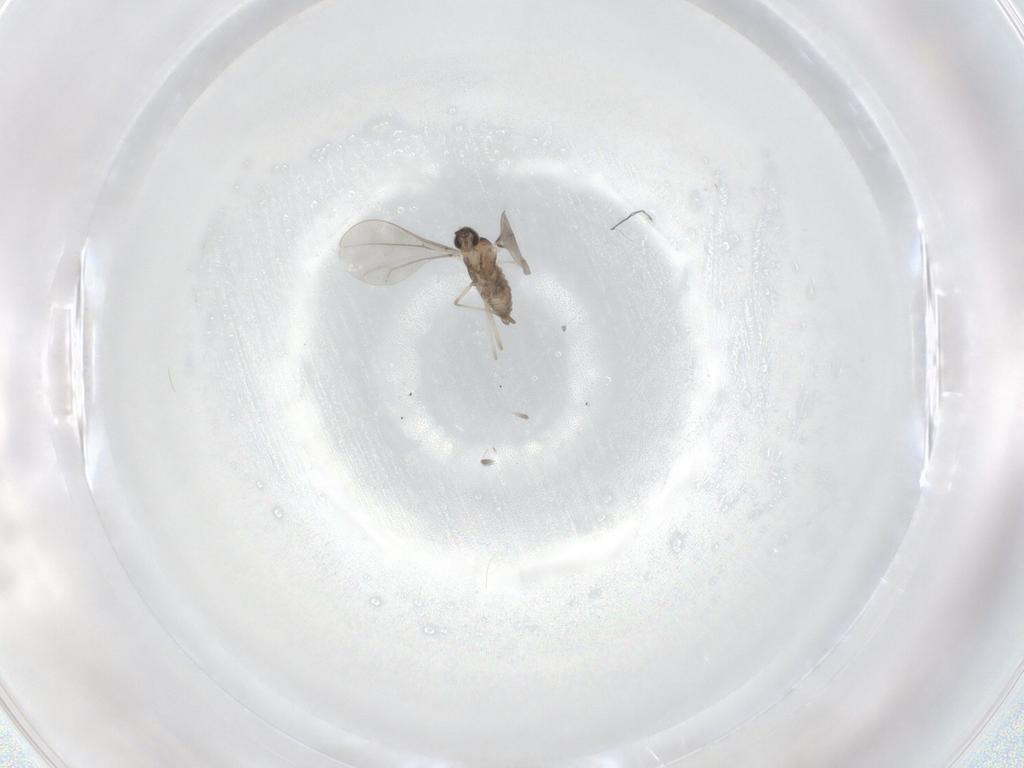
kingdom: Animalia
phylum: Arthropoda
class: Insecta
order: Diptera
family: Cecidomyiidae
